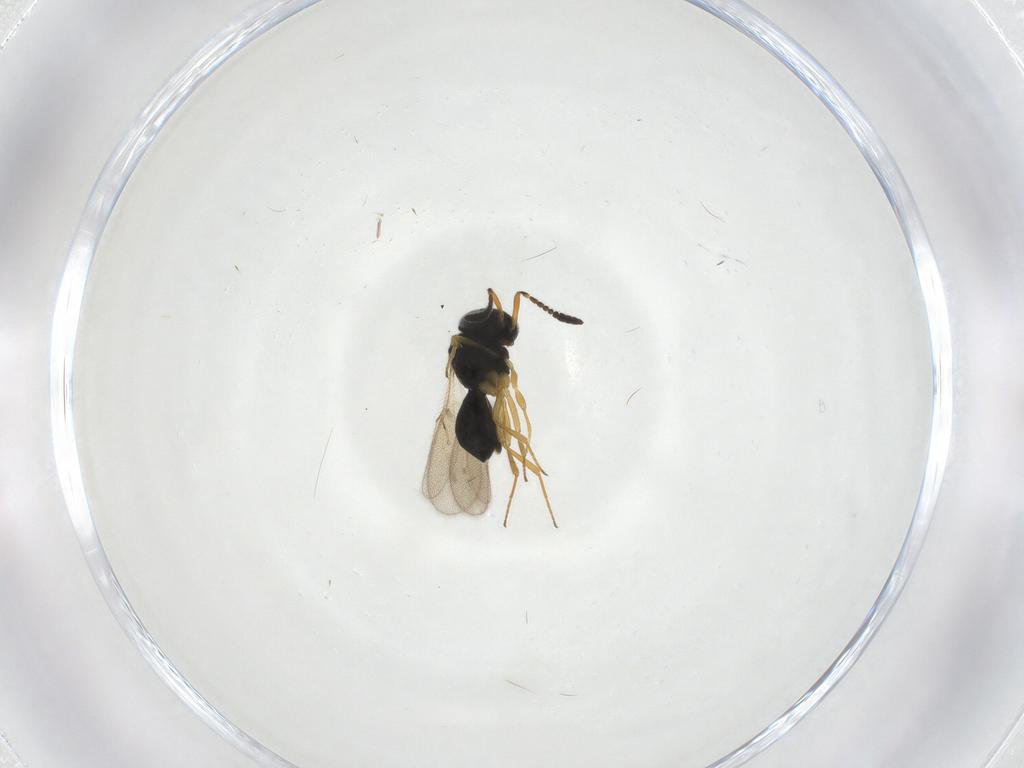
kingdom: Animalia
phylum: Arthropoda
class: Insecta
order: Hymenoptera
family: Scelionidae
